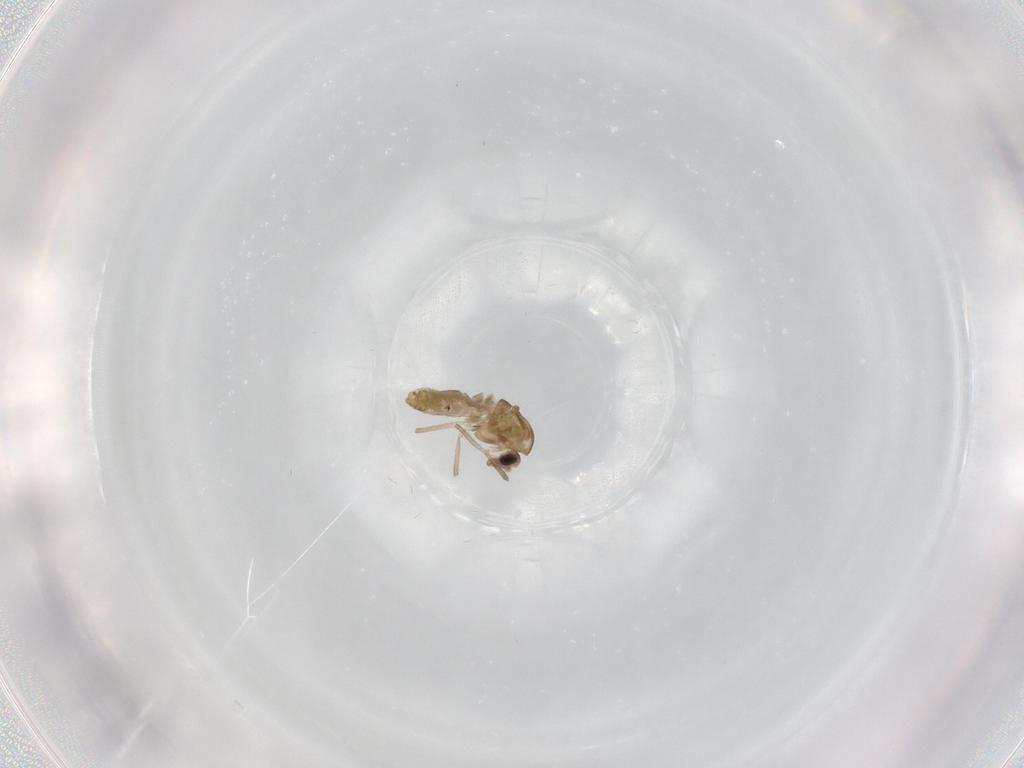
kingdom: Animalia
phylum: Arthropoda
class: Insecta
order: Diptera
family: Chironomidae
